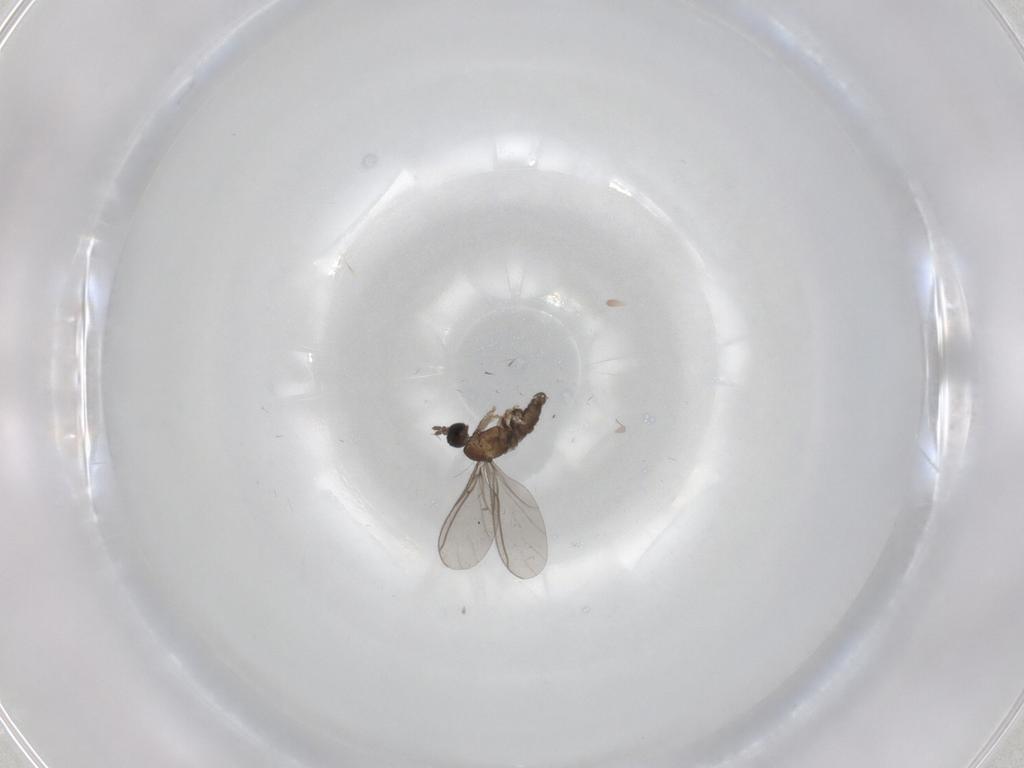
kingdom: Animalia
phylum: Arthropoda
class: Insecta
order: Diptera
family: Sciaridae
